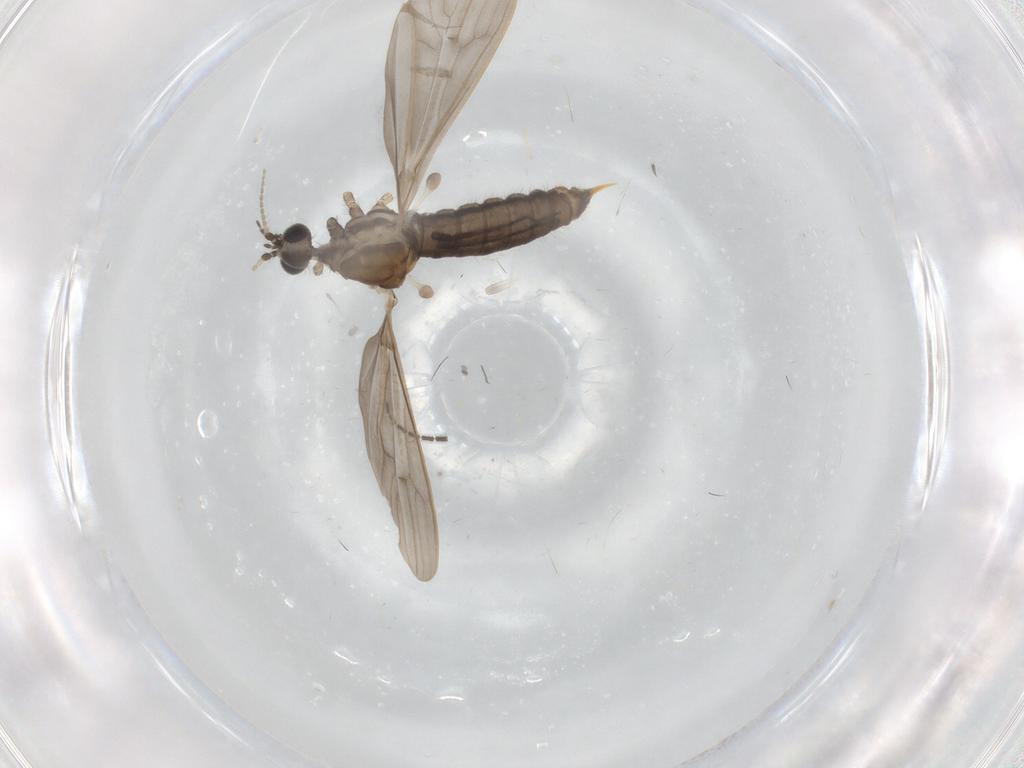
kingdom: Animalia
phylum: Arthropoda
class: Insecta
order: Diptera
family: Limoniidae
